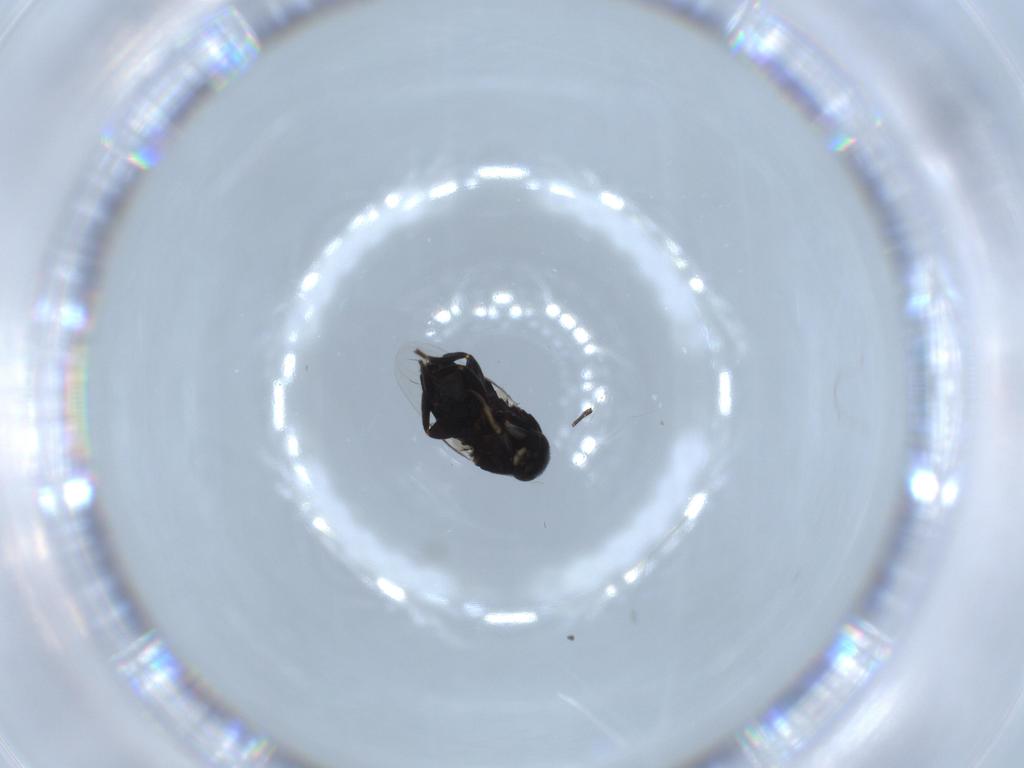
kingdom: Animalia
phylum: Arthropoda
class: Insecta
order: Diptera
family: Phoridae
